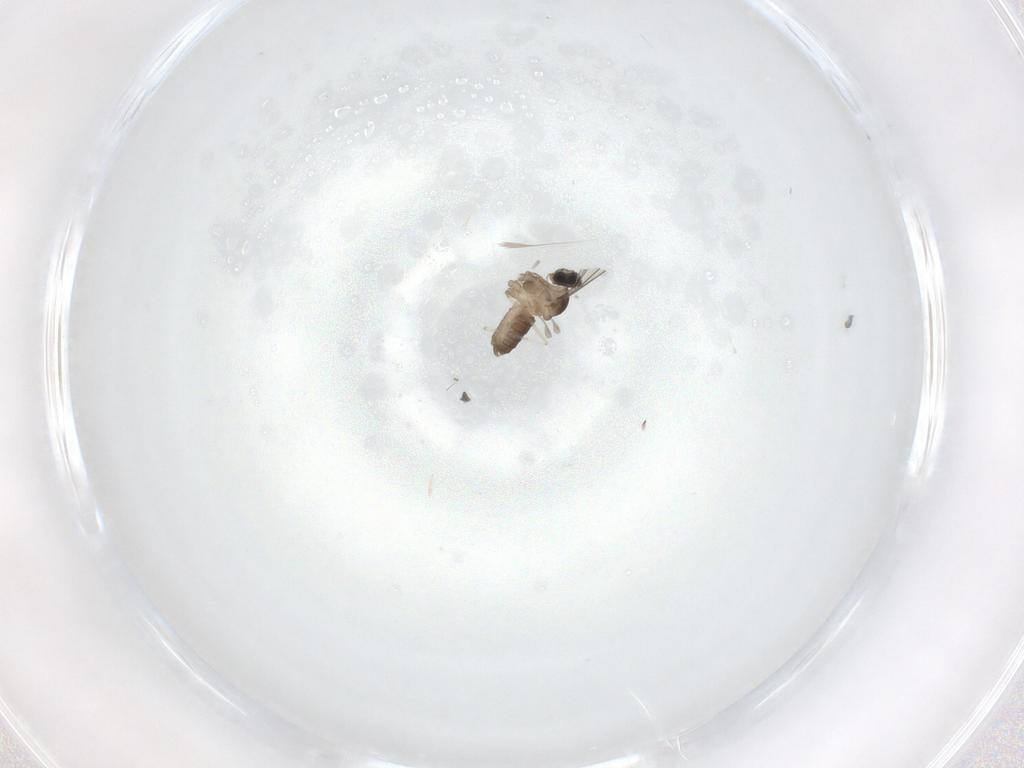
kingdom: Animalia
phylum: Arthropoda
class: Insecta
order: Diptera
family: Cecidomyiidae
